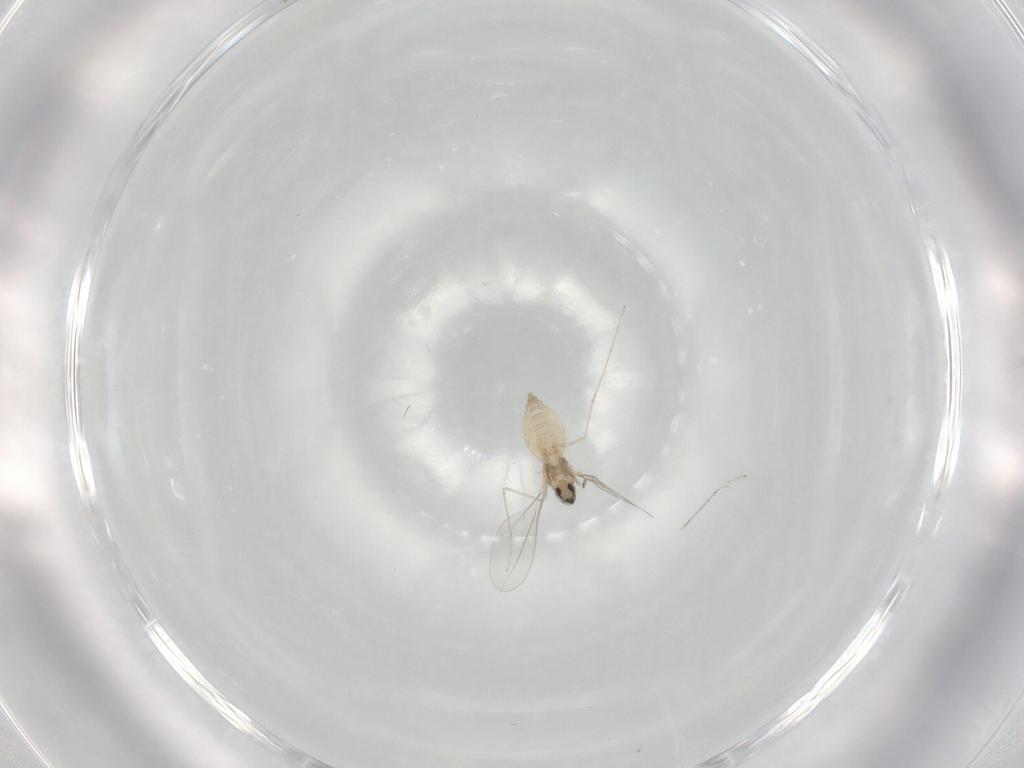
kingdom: Animalia
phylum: Arthropoda
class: Insecta
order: Diptera
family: Cecidomyiidae
